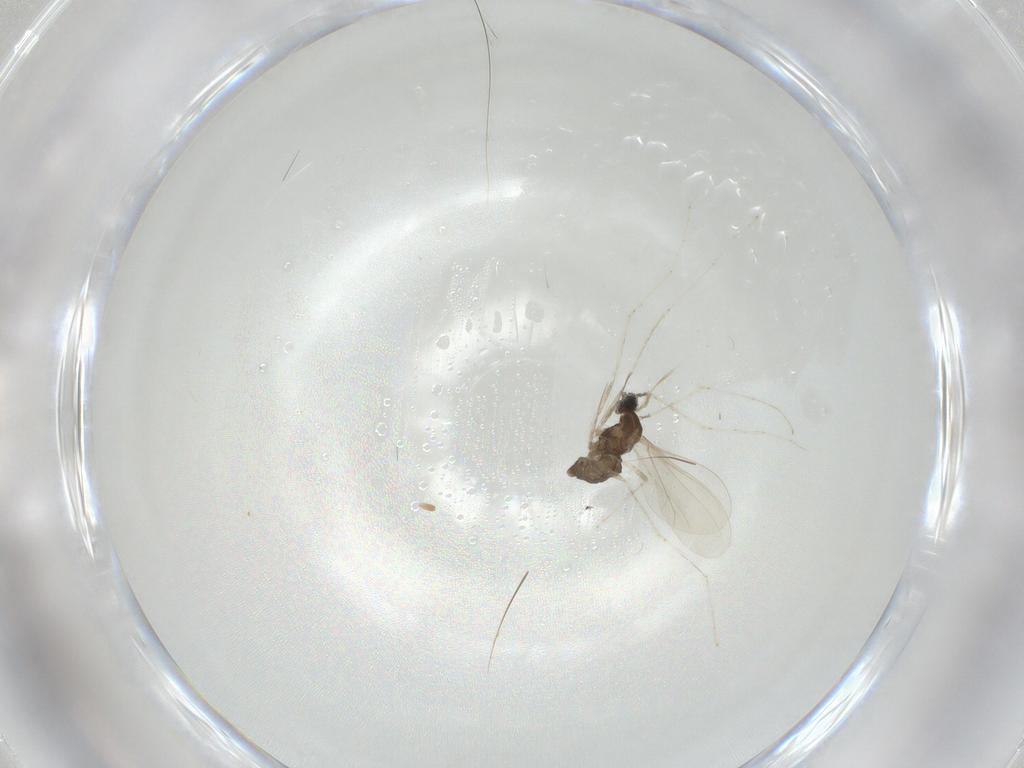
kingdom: Animalia
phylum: Arthropoda
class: Insecta
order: Diptera
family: Cecidomyiidae
